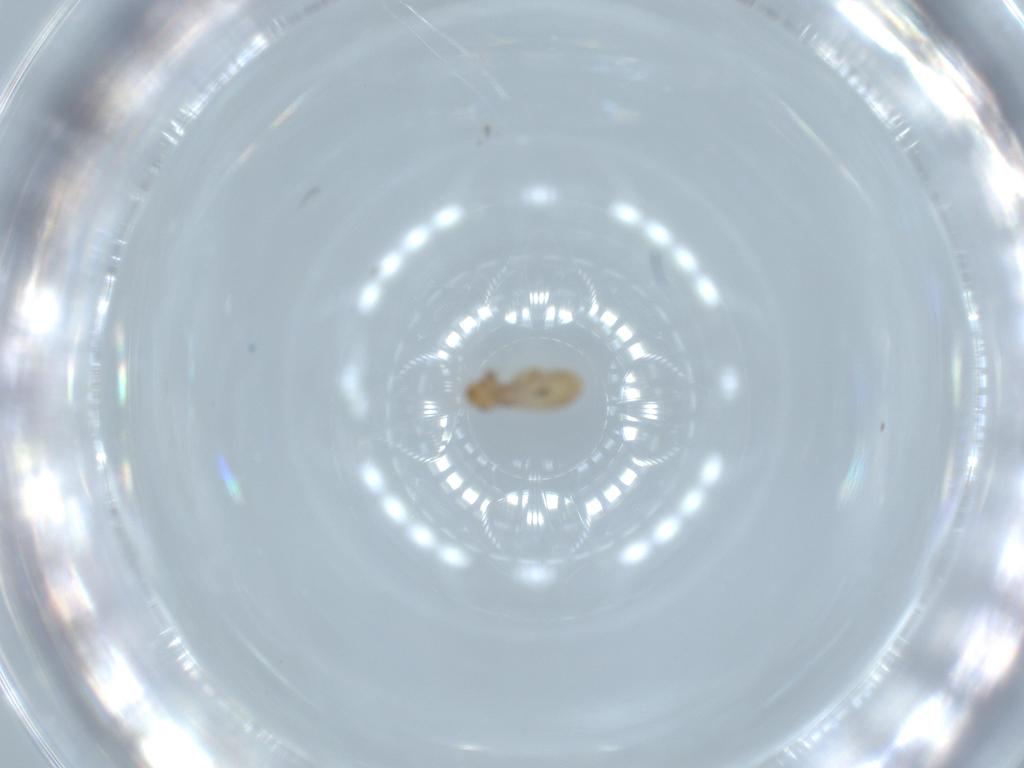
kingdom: Animalia
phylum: Arthropoda
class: Insecta
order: Psocodea
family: Liposcelididae
